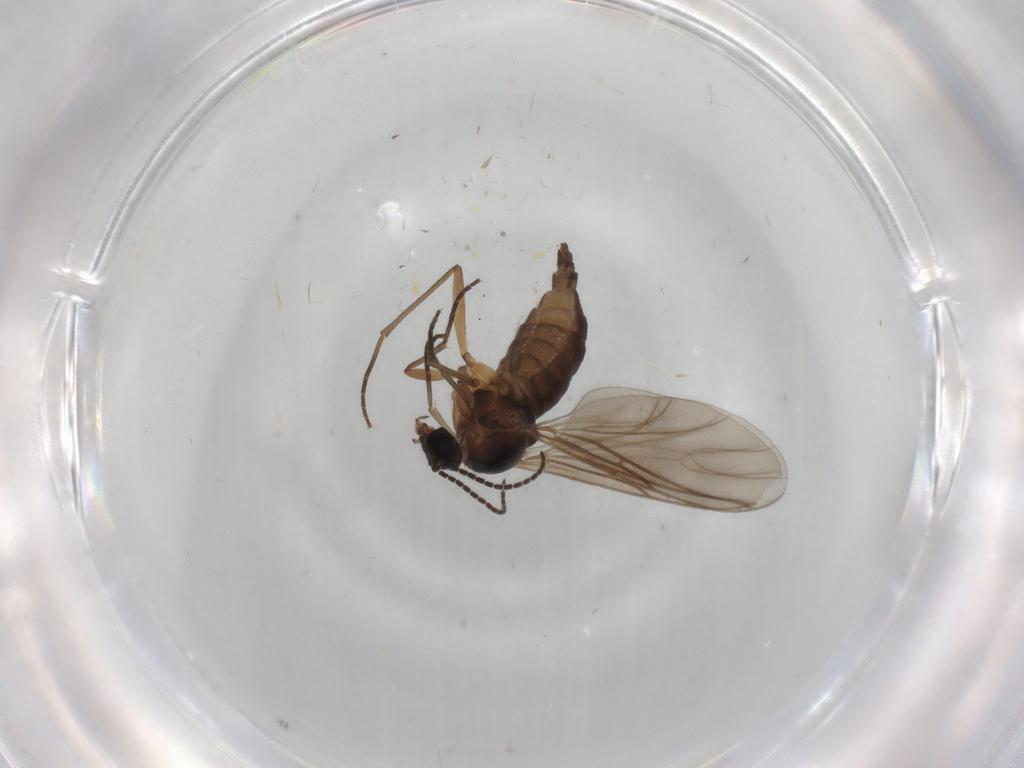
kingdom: Animalia
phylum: Arthropoda
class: Insecta
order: Diptera
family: Sciaridae
